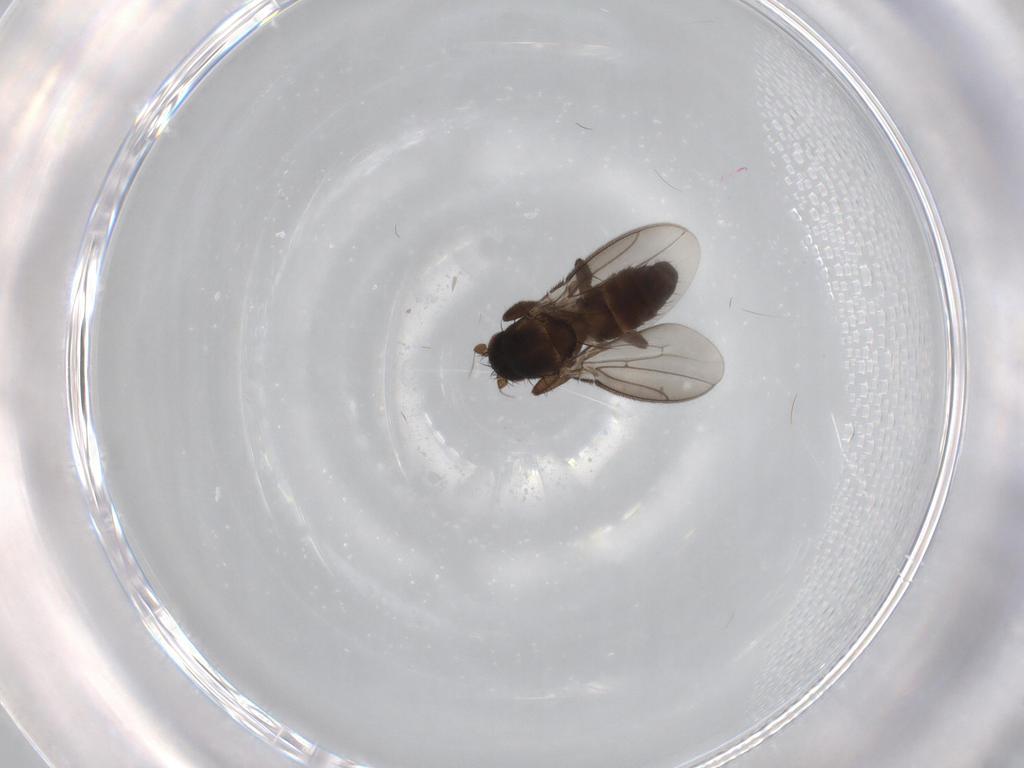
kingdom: Animalia
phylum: Arthropoda
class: Insecta
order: Diptera
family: Sphaeroceridae
